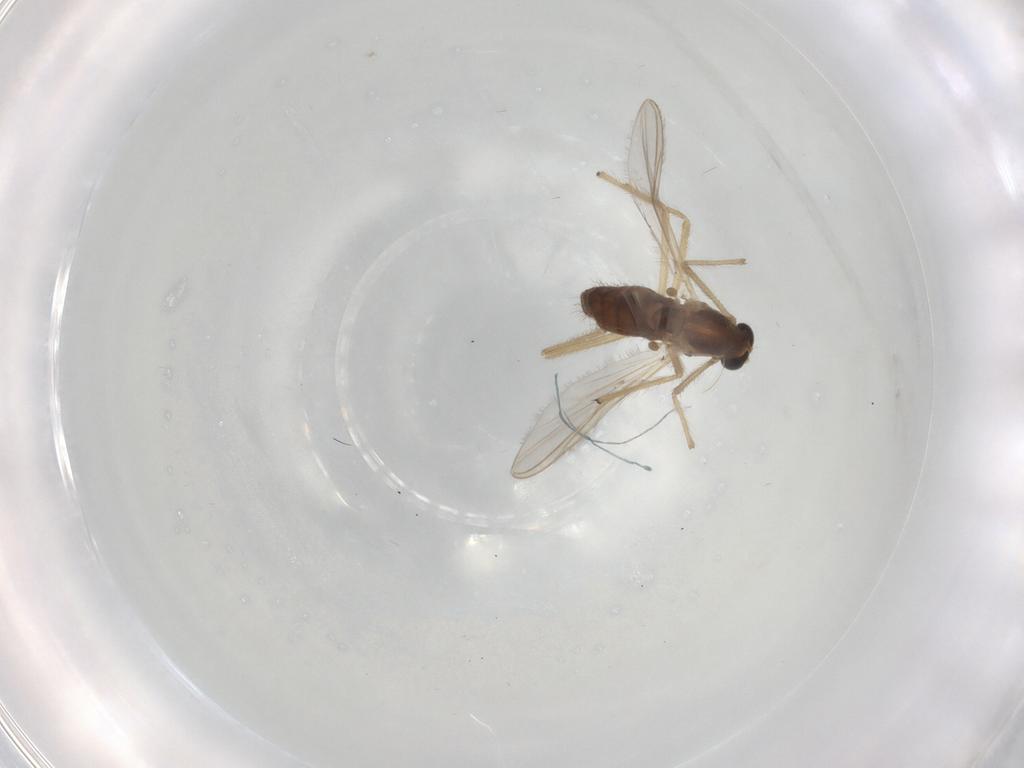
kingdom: Animalia
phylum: Arthropoda
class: Insecta
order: Diptera
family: Chironomidae
